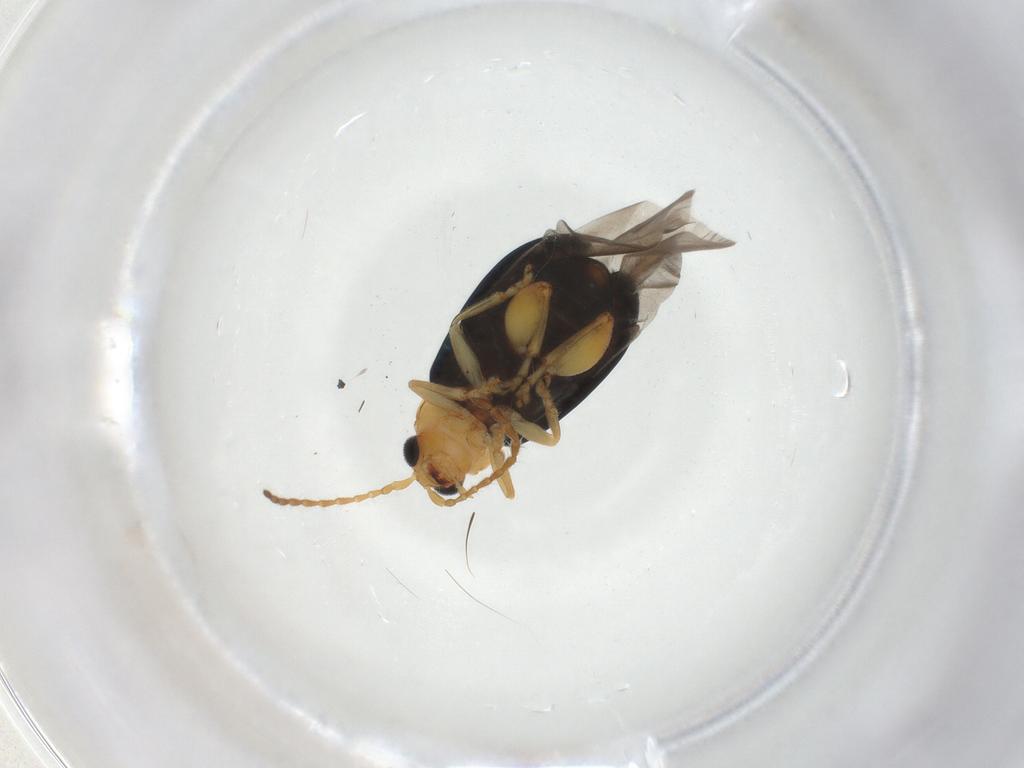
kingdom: Animalia
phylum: Arthropoda
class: Insecta
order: Coleoptera
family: Chrysomelidae
